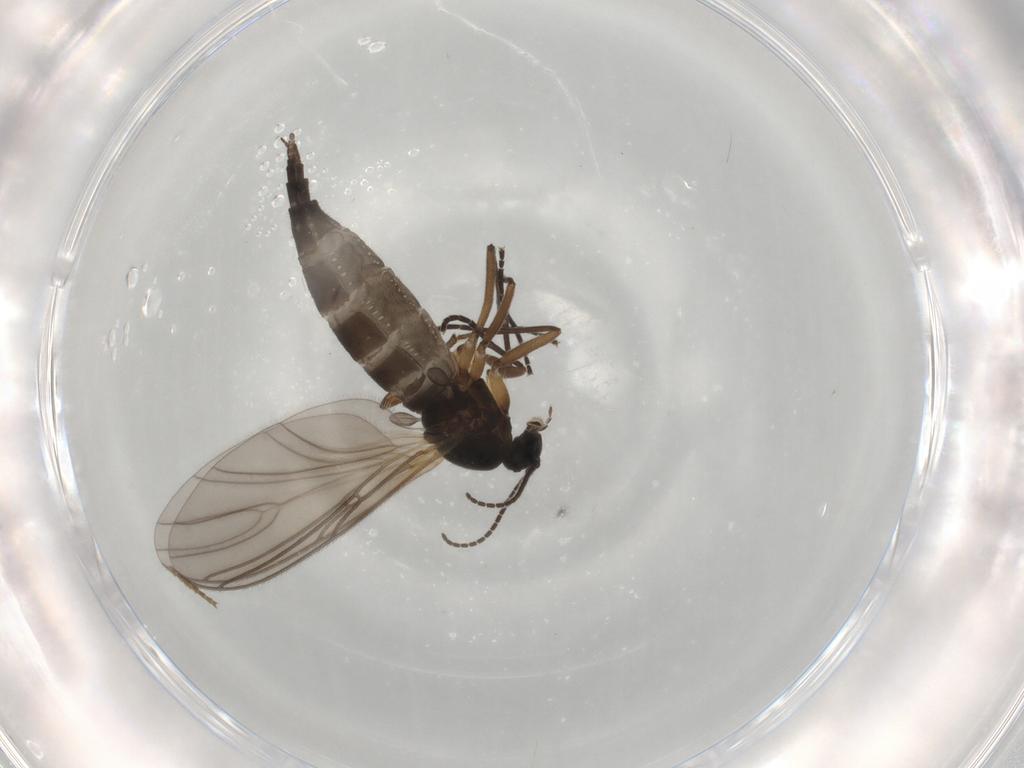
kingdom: Animalia
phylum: Arthropoda
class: Insecta
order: Diptera
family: Sciaridae
